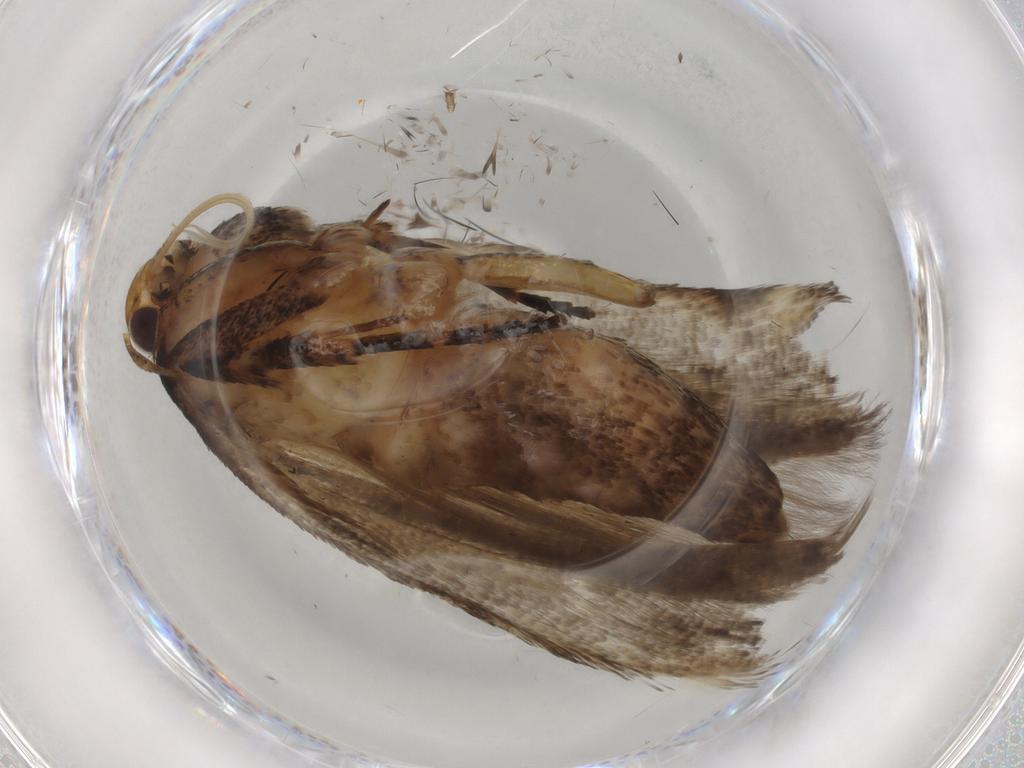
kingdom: Animalia
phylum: Arthropoda
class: Insecta
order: Lepidoptera
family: Gelechiidae
